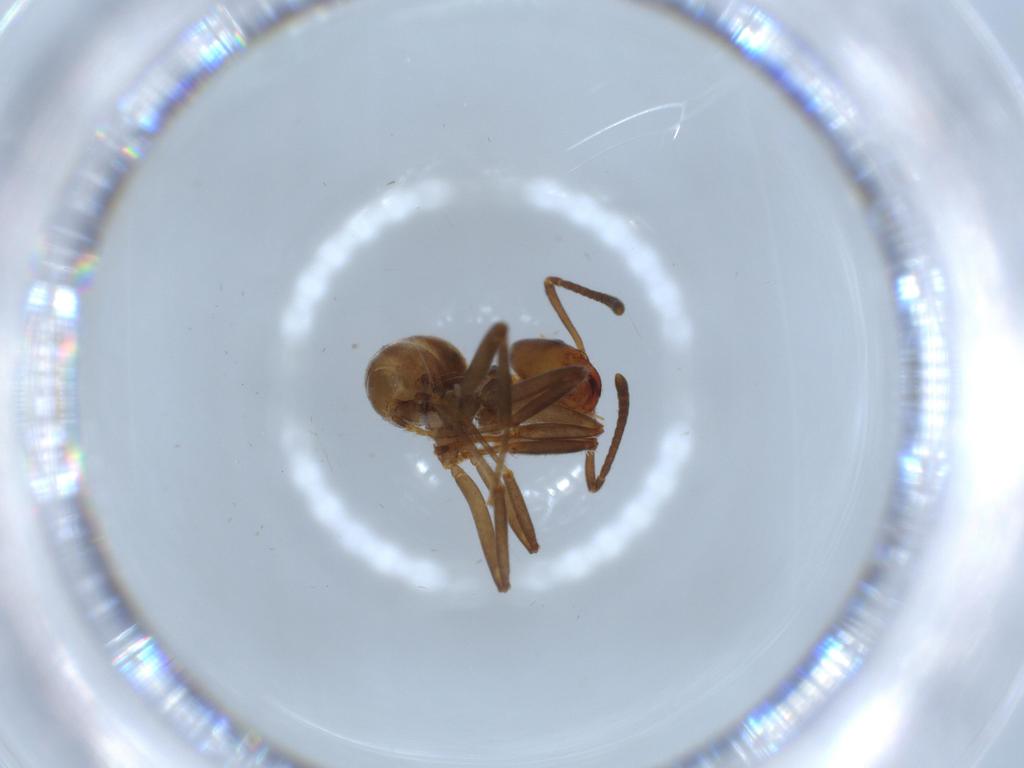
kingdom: Animalia
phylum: Arthropoda
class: Insecta
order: Hymenoptera
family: Formicidae
